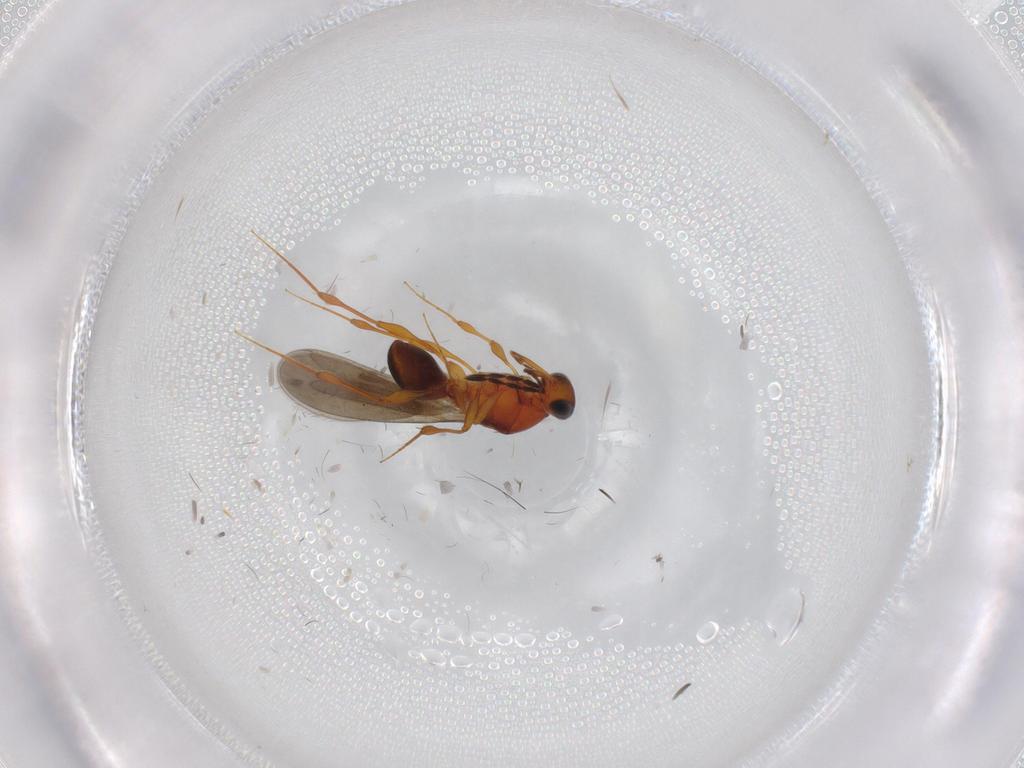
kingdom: Animalia
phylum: Arthropoda
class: Insecta
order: Hymenoptera
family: Platygastridae
